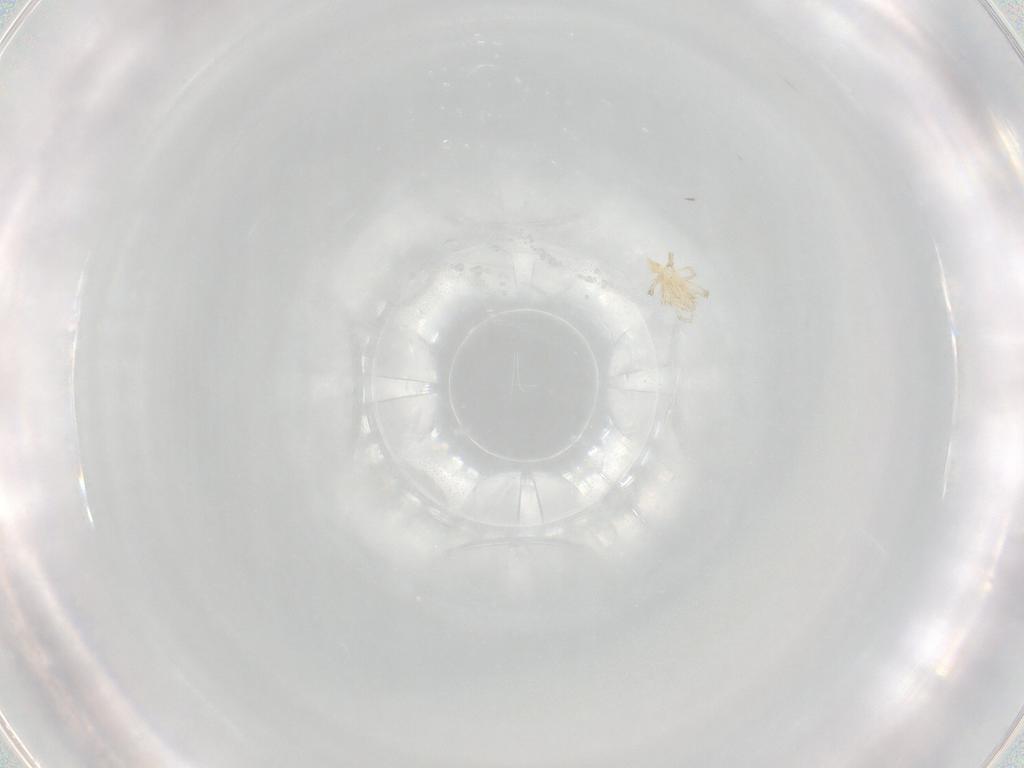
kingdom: Animalia
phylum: Arthropoda
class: Arachnida
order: Trombidiformes
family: Erythraeidae
